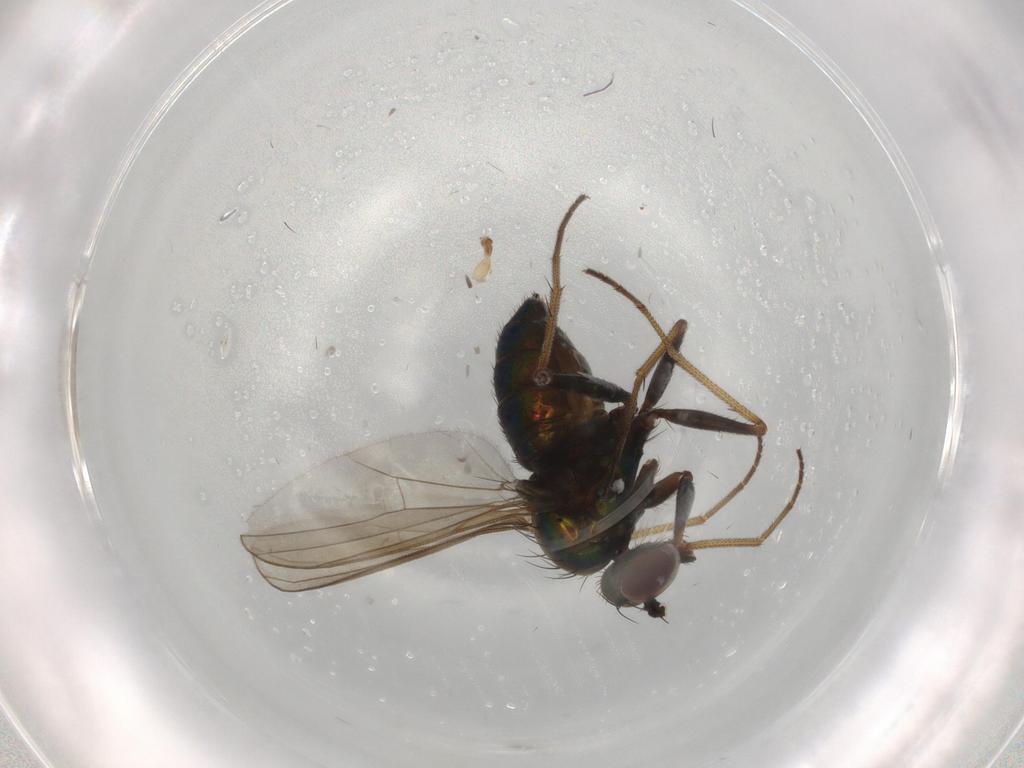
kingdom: Animalia
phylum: Arthropoda
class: Insecta
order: Diptera
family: Dolichopodidae
